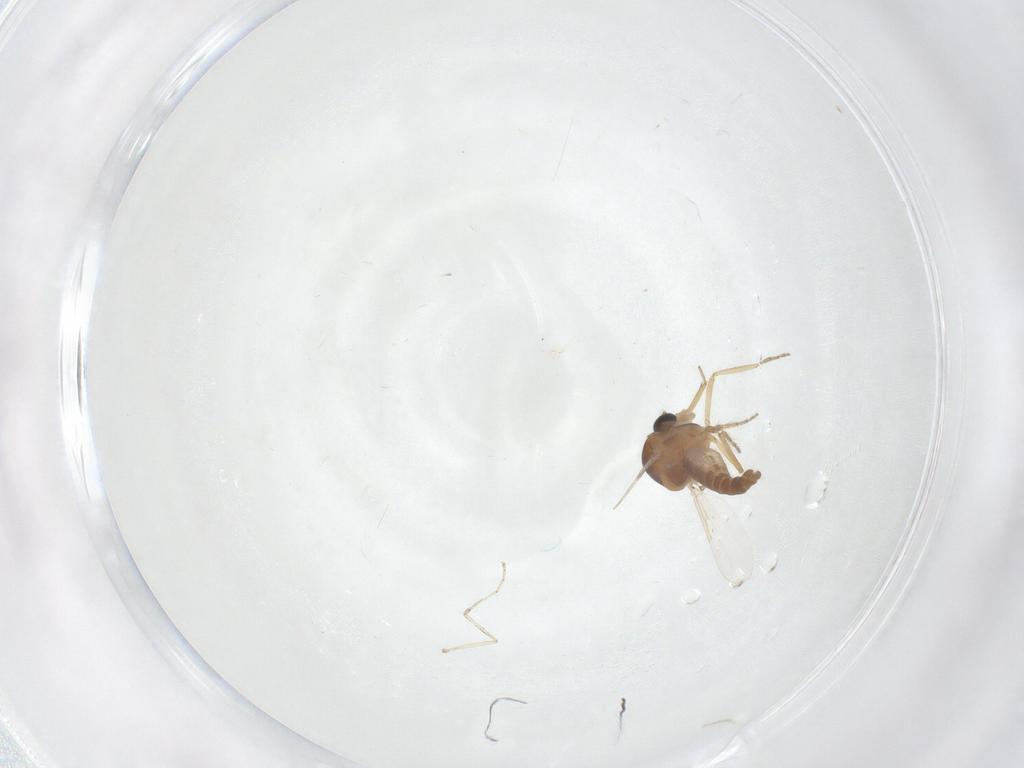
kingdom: Animalia
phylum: Arthropoda
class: Insecta
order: Diptera
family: Ceratopogonidae
